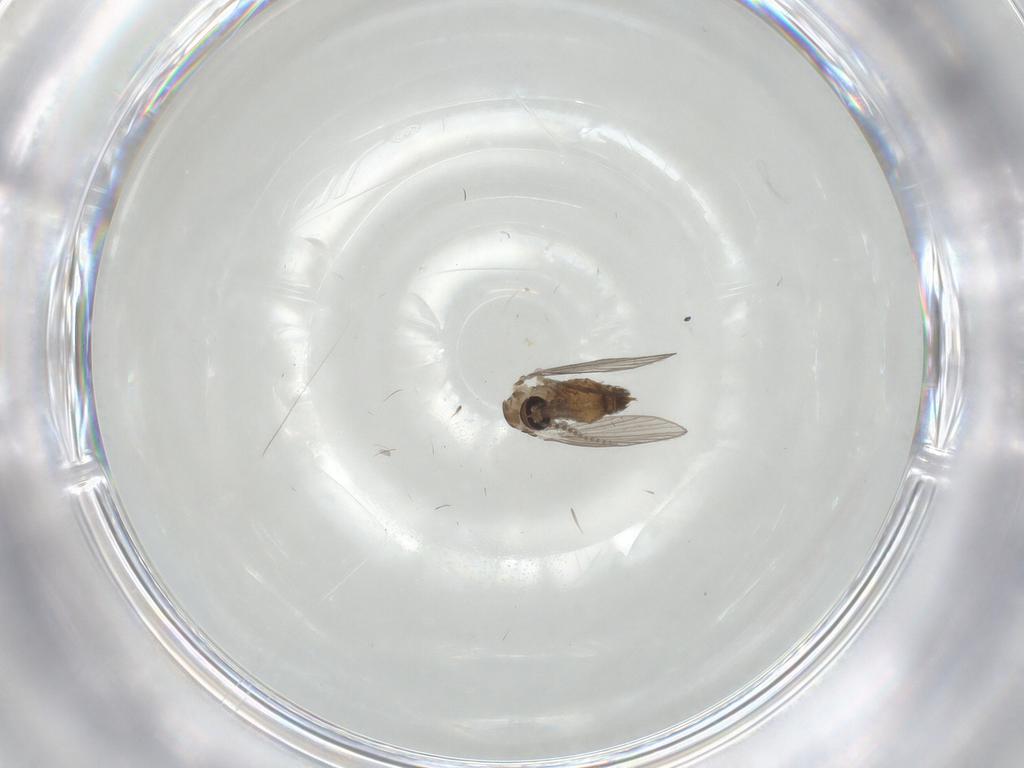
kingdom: Animalia
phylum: Arthropoda
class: Insecta
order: Diptera
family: Psychodidae
